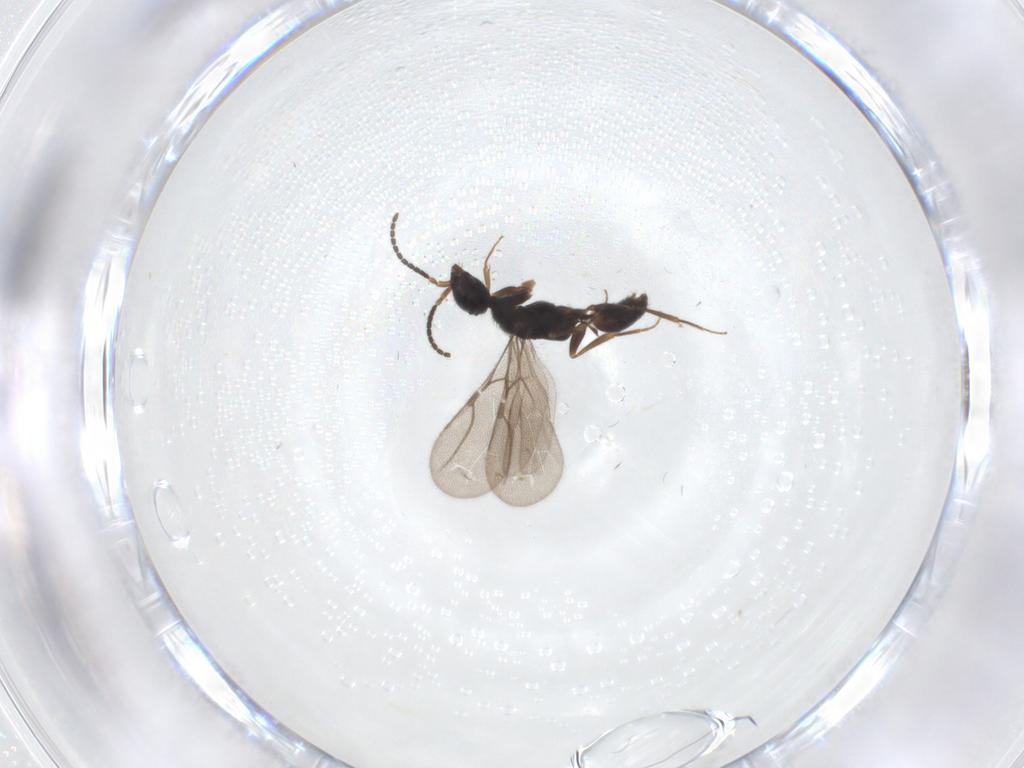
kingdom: Animalia
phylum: Arthropoda
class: Insecta
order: Hymenoptera
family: Bethylidae
